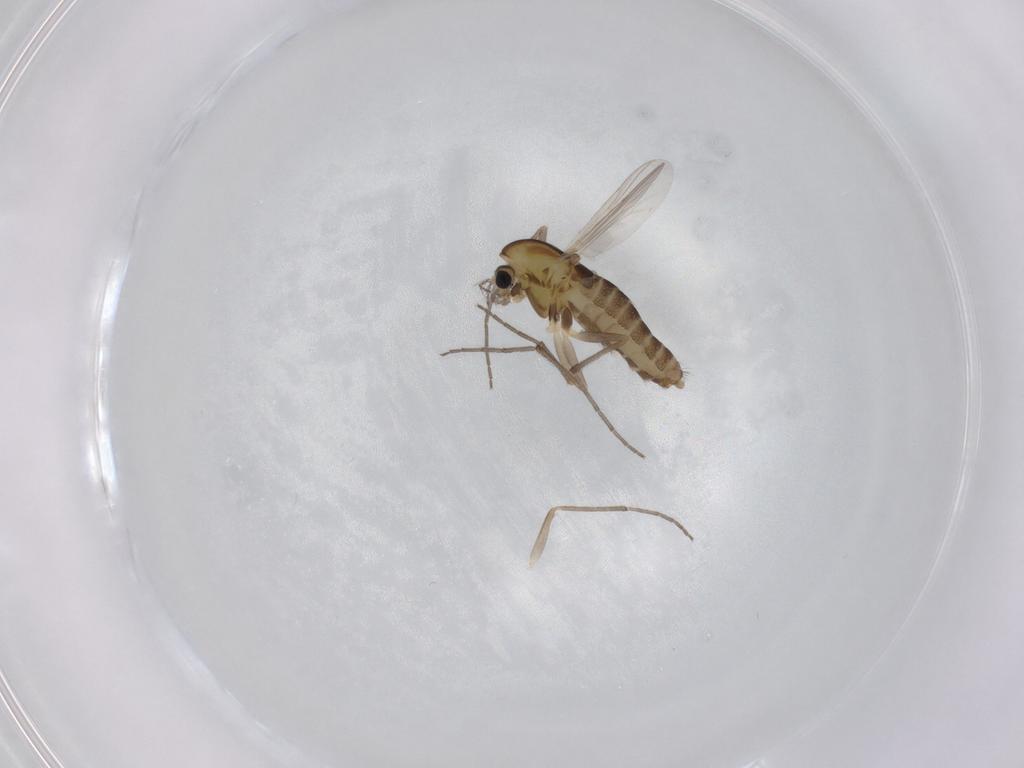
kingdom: Animalia
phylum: Arthropoda
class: Insecta
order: Diptera
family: Chironomidae
